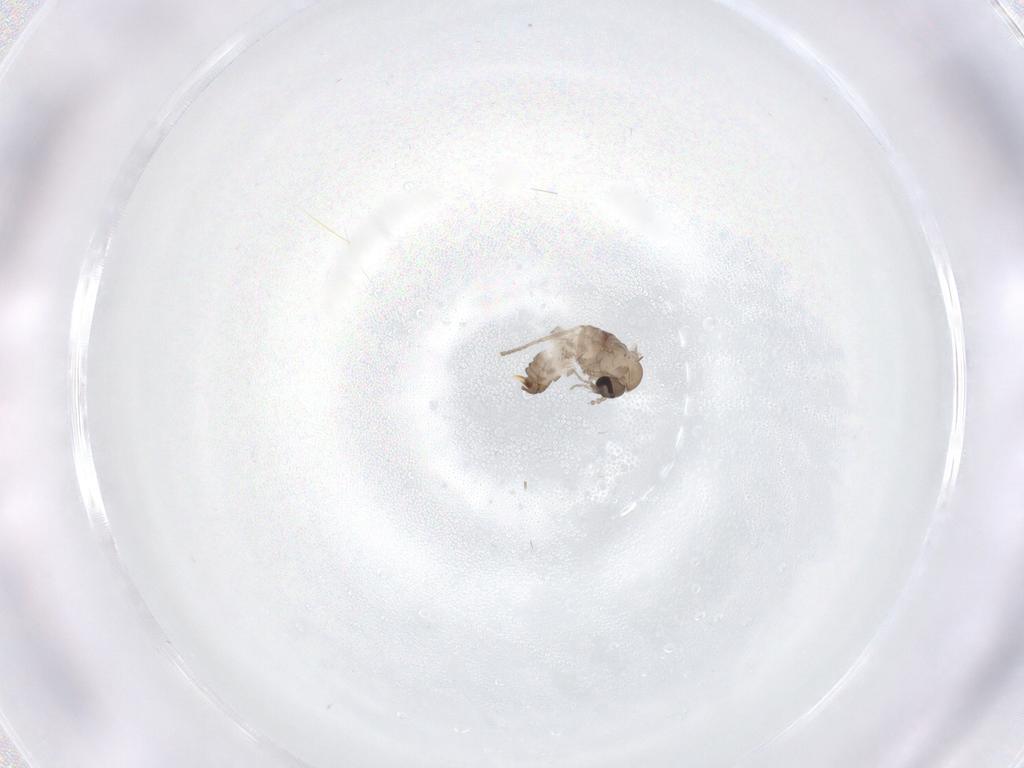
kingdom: Animalia
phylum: Arthropoda
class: Insecta
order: Diptera
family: Psychodidae
